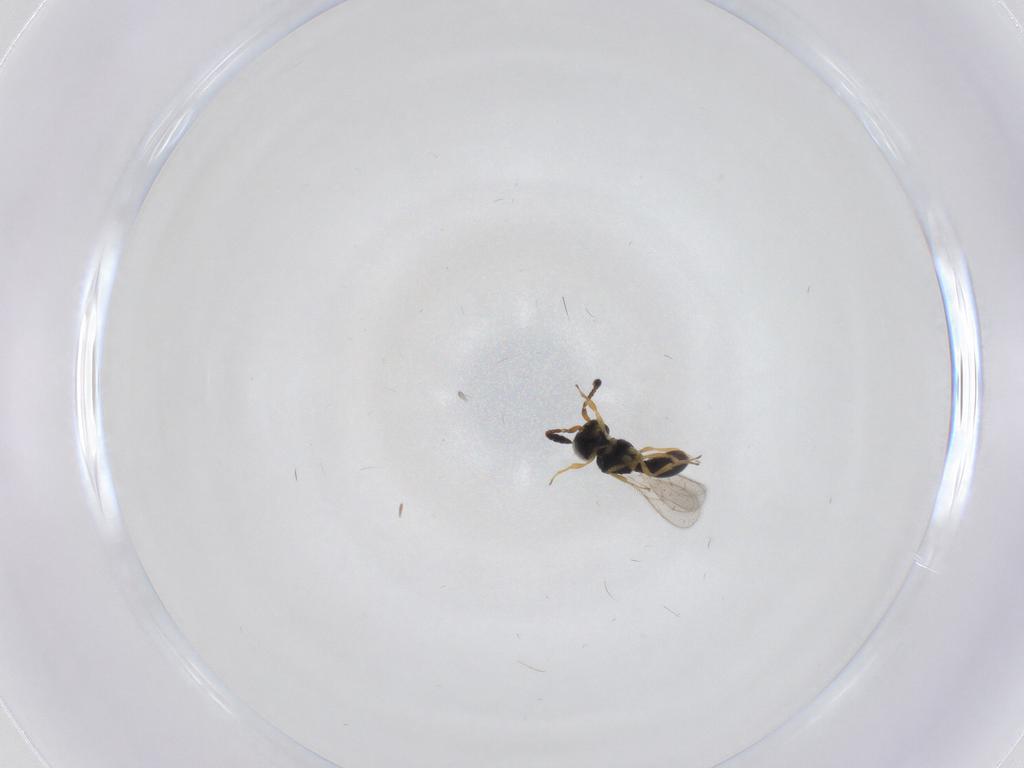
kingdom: Animalia
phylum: Arthropoda
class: Insecta
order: Hymenoptera
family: Scelionidae
